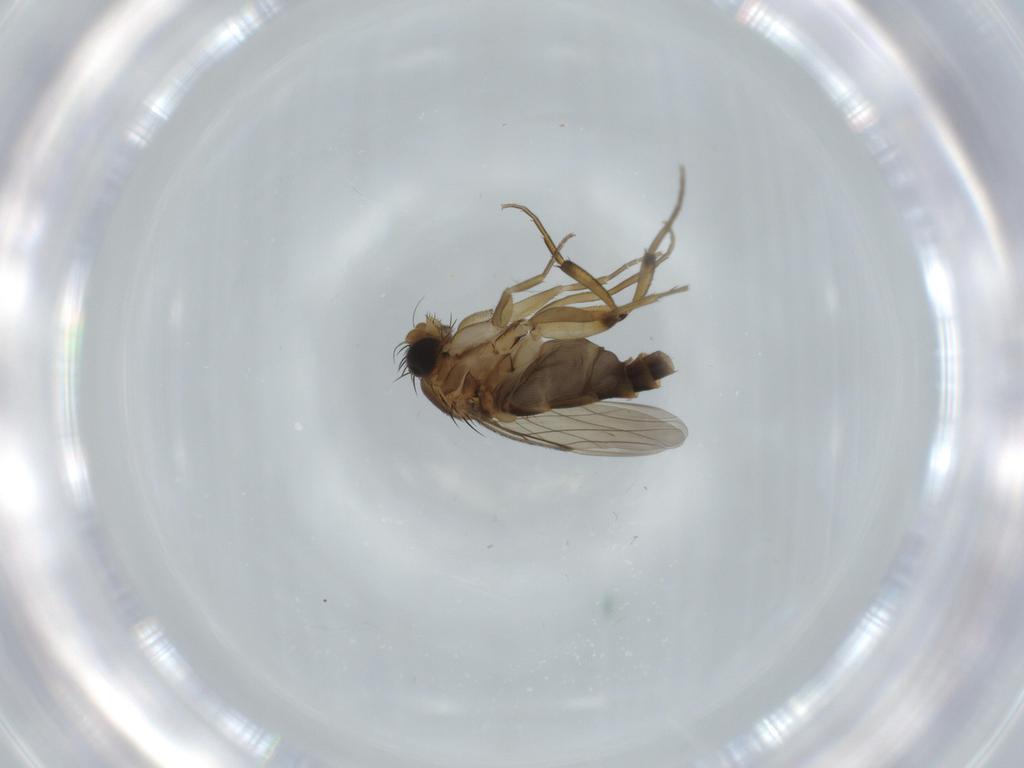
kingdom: Animalia
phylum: Arthropoda
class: Insecta
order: Diptera
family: Phoridae
